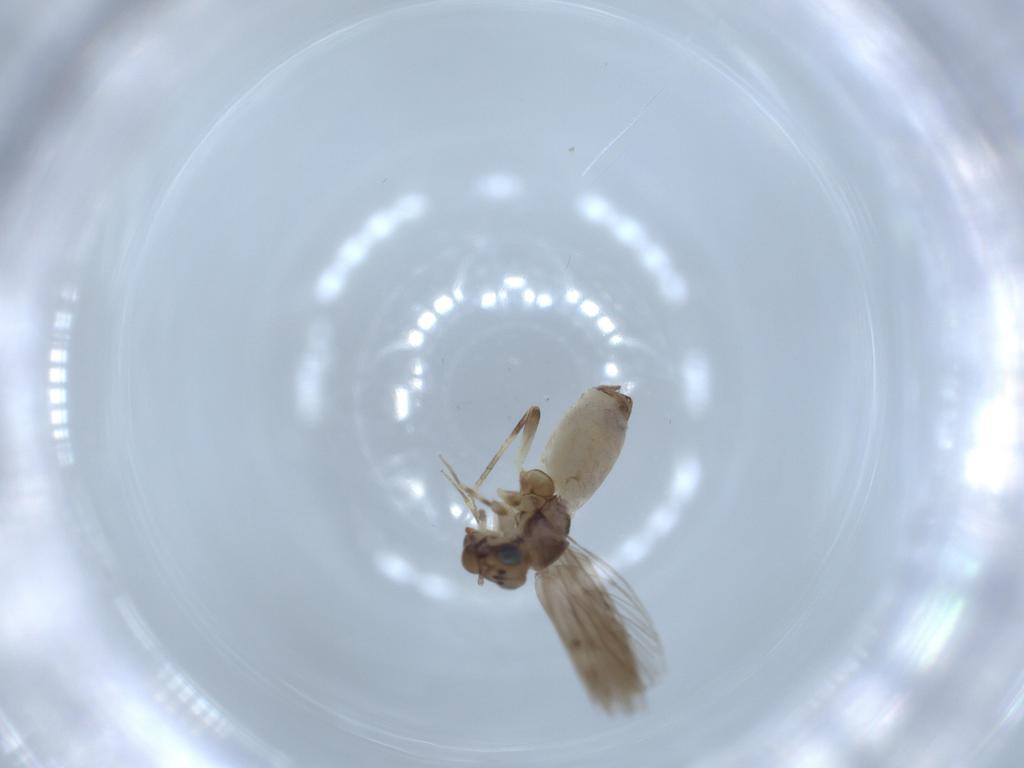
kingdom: Animalia
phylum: Arthropoda
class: Insecta
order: Psocodea
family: Lepidopsocidae
